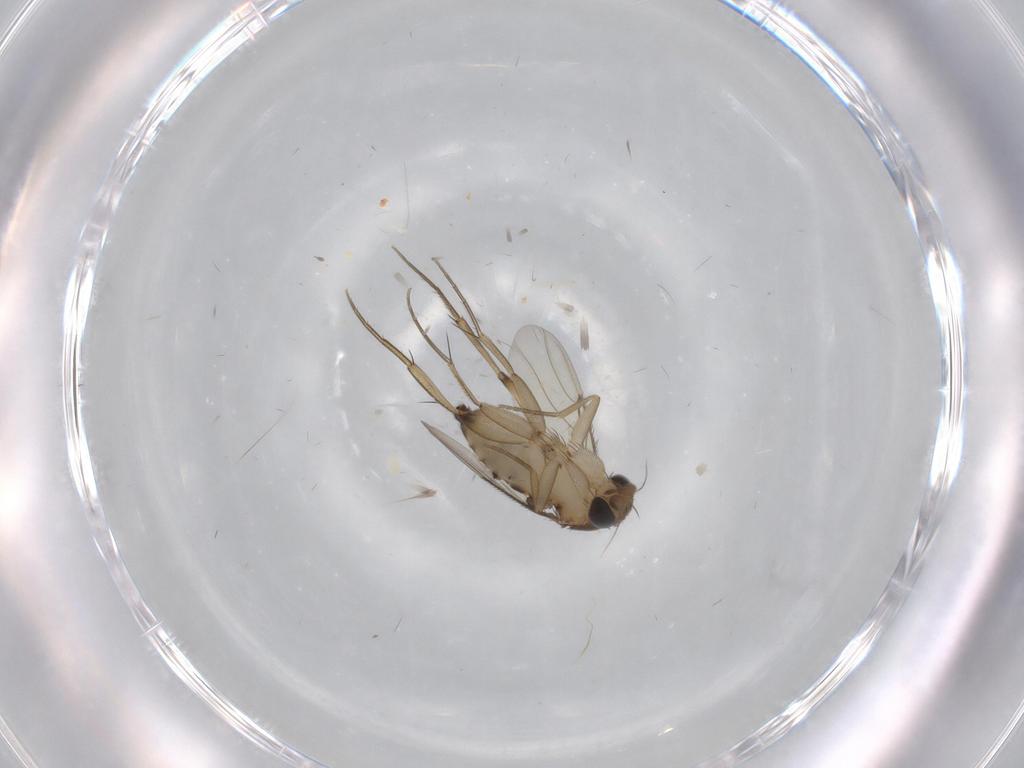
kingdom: Animalia
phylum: Arthropoda
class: Insecta
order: Diptera
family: Phoridae
